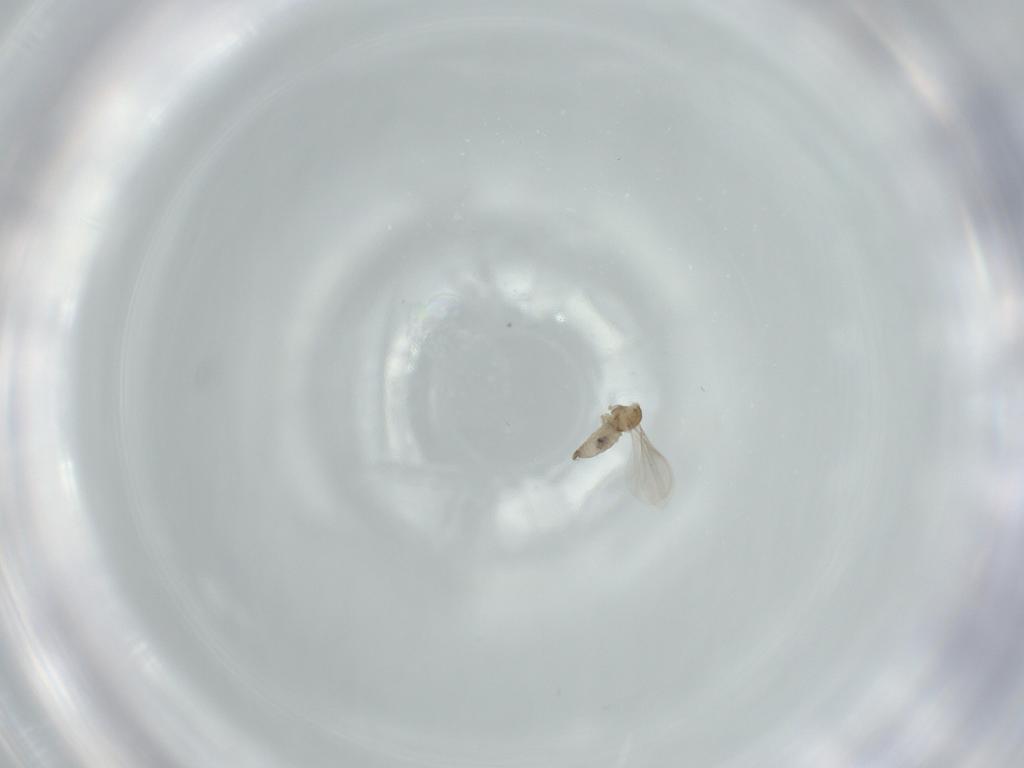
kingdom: Animalia
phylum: Arthropoda
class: Insecta
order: Diptera
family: Cecidomyiidae
